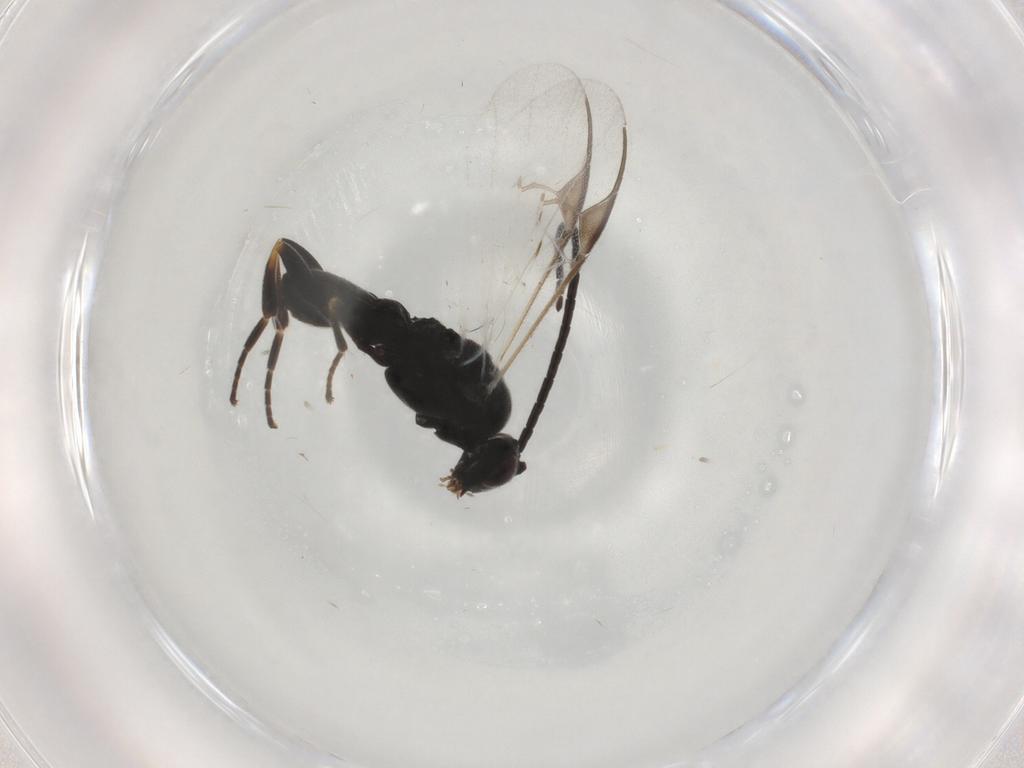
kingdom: Animalia
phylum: Arthropoda
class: Insecta
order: Hymenoptera
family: Braconidae
